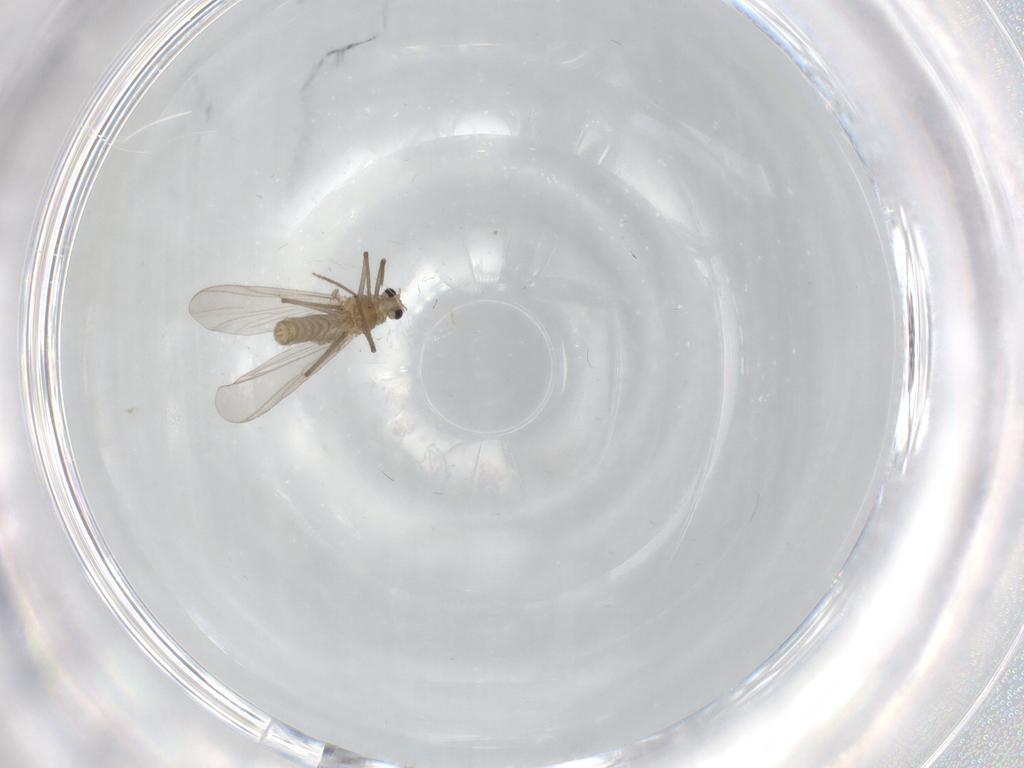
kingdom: Animalia
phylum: Arthropoda
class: Insecta
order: Diptera
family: Chironomidae
